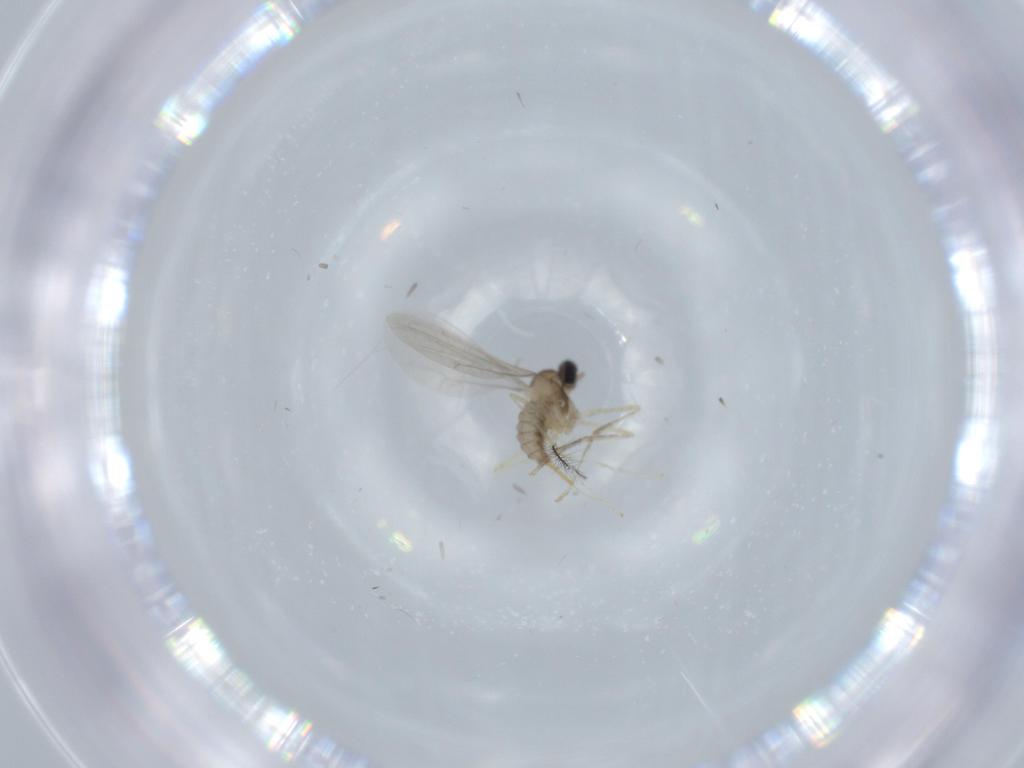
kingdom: Animalia
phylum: Arthropoda
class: Insecta
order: Diptera
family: Cecidomyiidae
